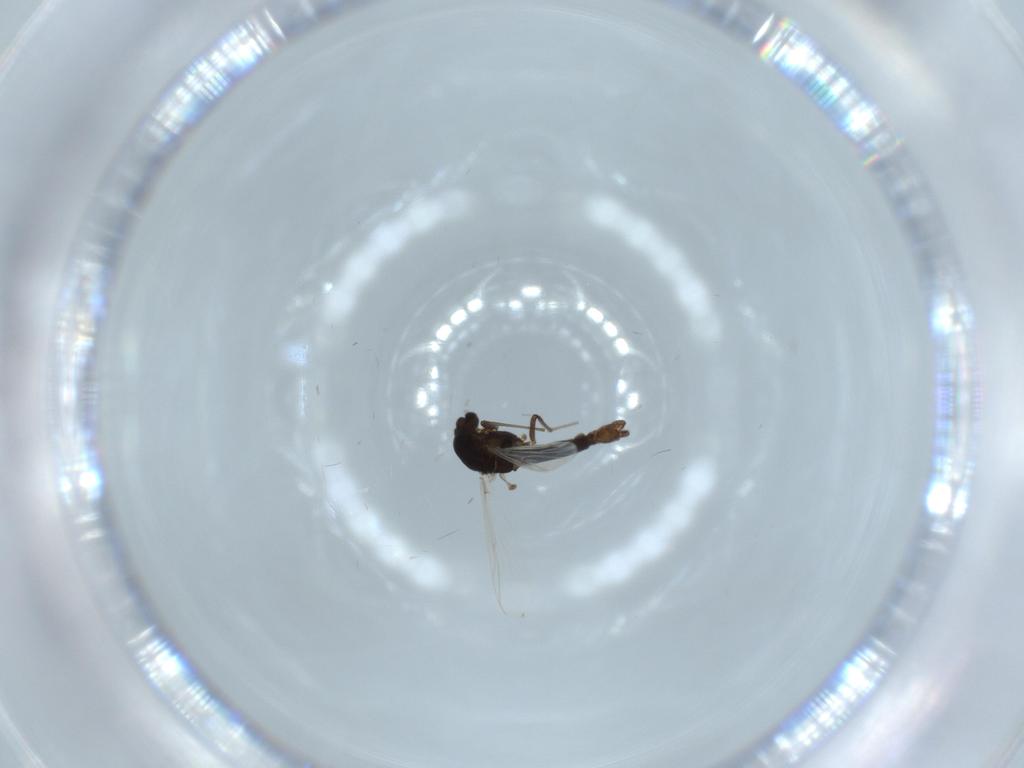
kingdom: Animalia
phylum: Arthropoda
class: Insecta
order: Diptera
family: Chironomidae
